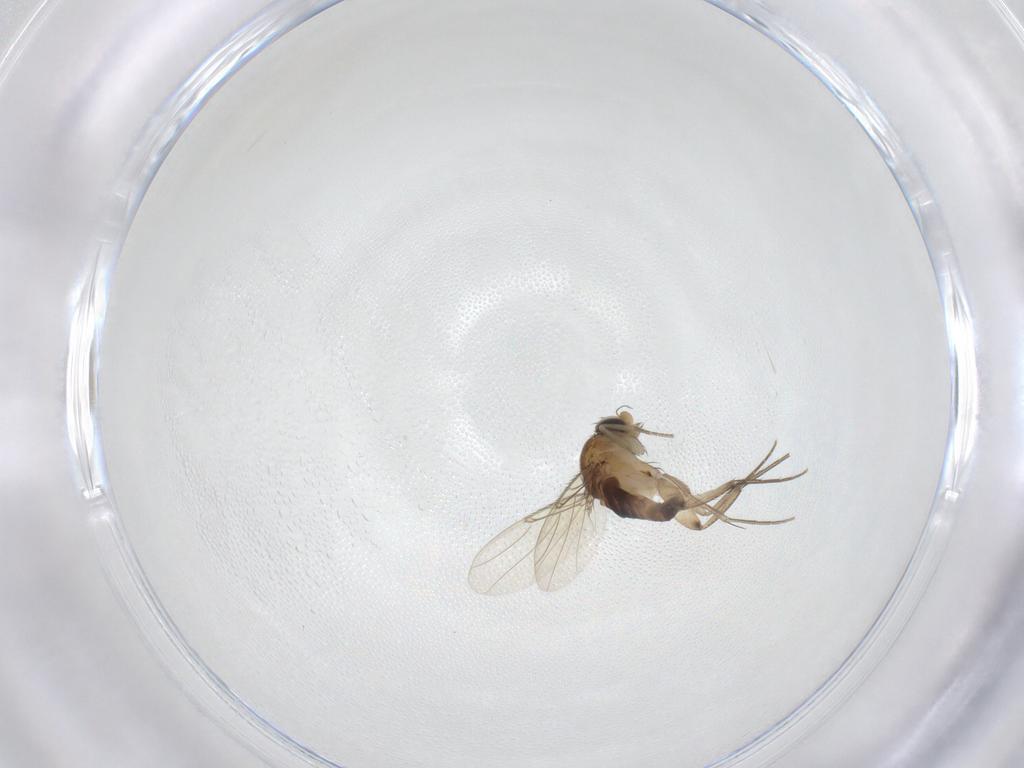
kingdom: Animalia
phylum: Arthropoda
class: Insecta
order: Diptera
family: Phoridae
